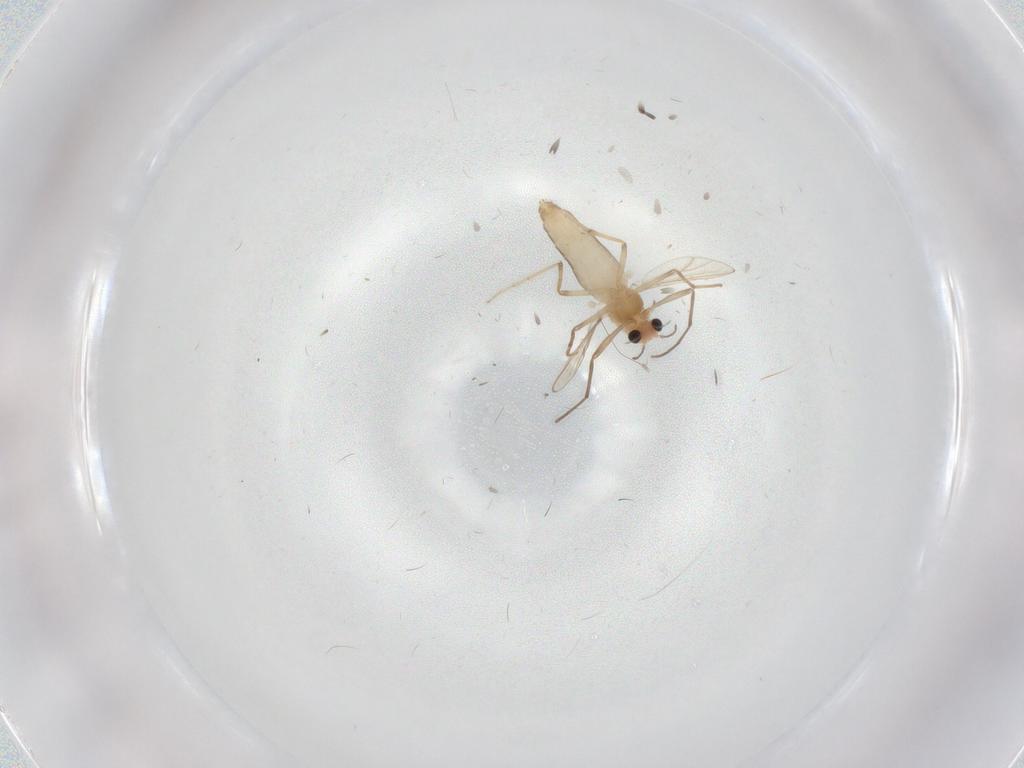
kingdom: Animalia
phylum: Arthropoda
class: Insecta
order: Diptera
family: Chironomidae
